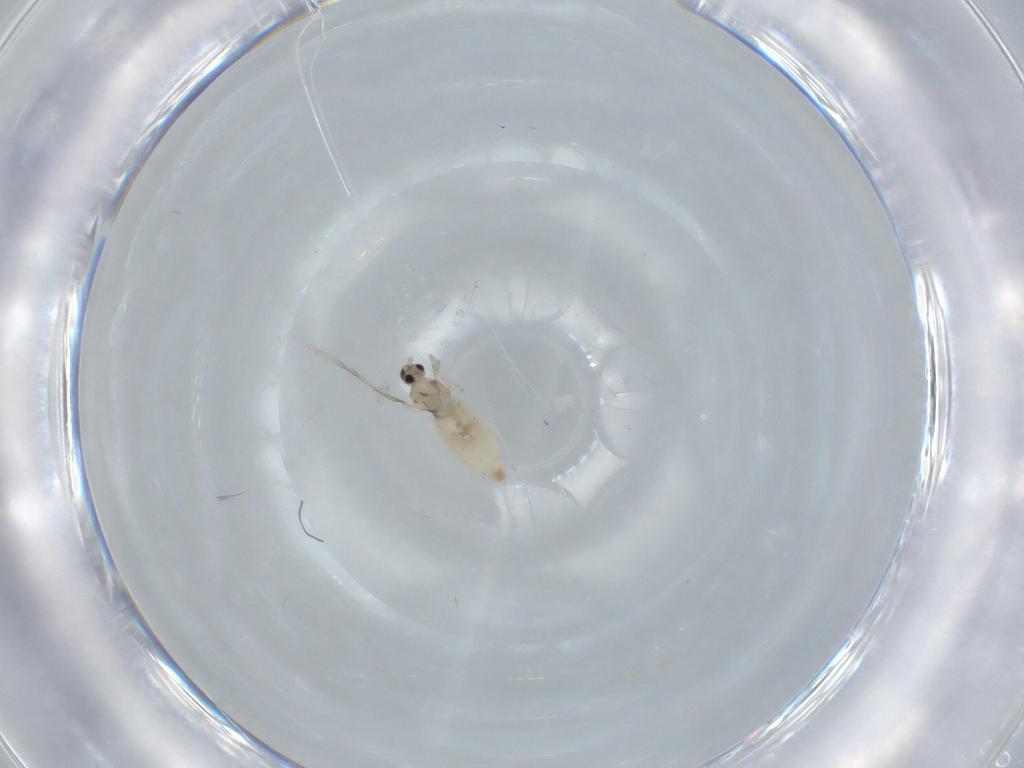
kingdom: Animalia
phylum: Arthropoda
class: Insecta
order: Diptera
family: Cecidomyiidae
